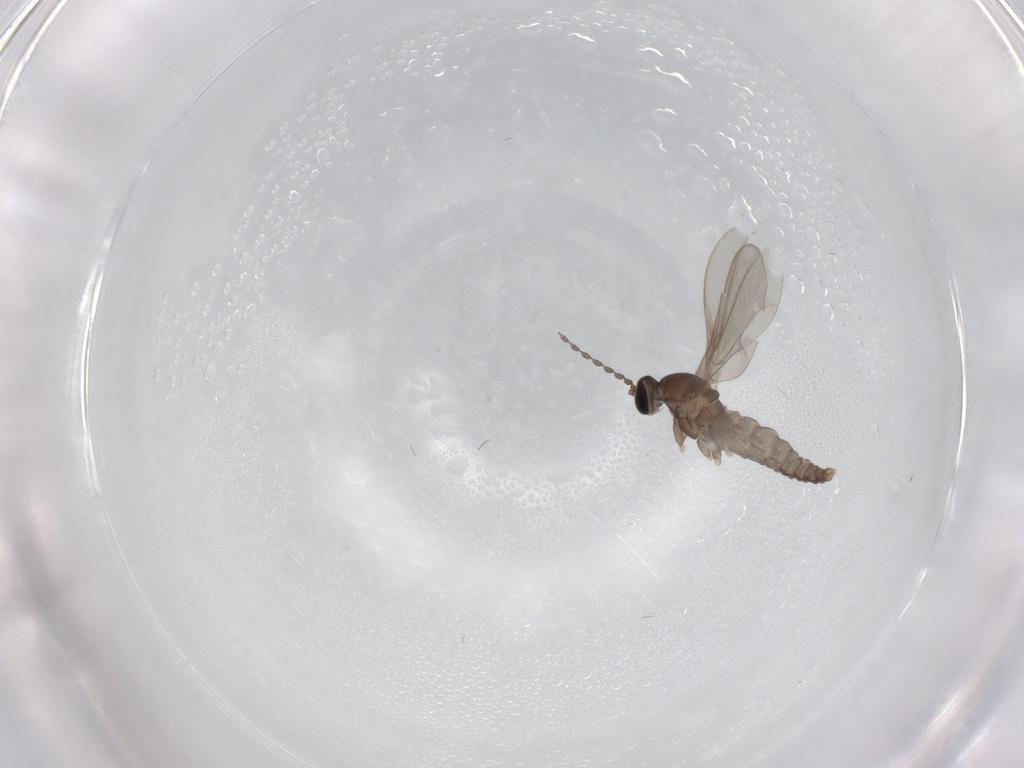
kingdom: Animalia
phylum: Arthropoda
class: Insecta
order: Diptera
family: Cecidomyiidae
